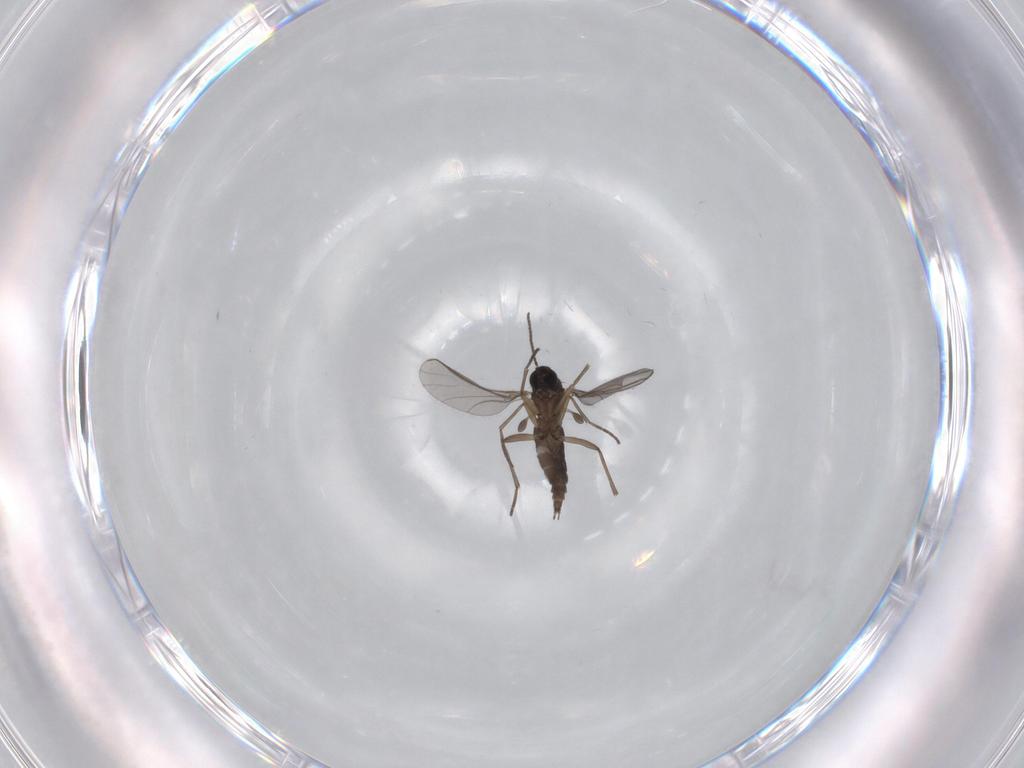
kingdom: Animalia
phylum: Arthropoda
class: Insecta
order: Diptera
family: Sciaridae
